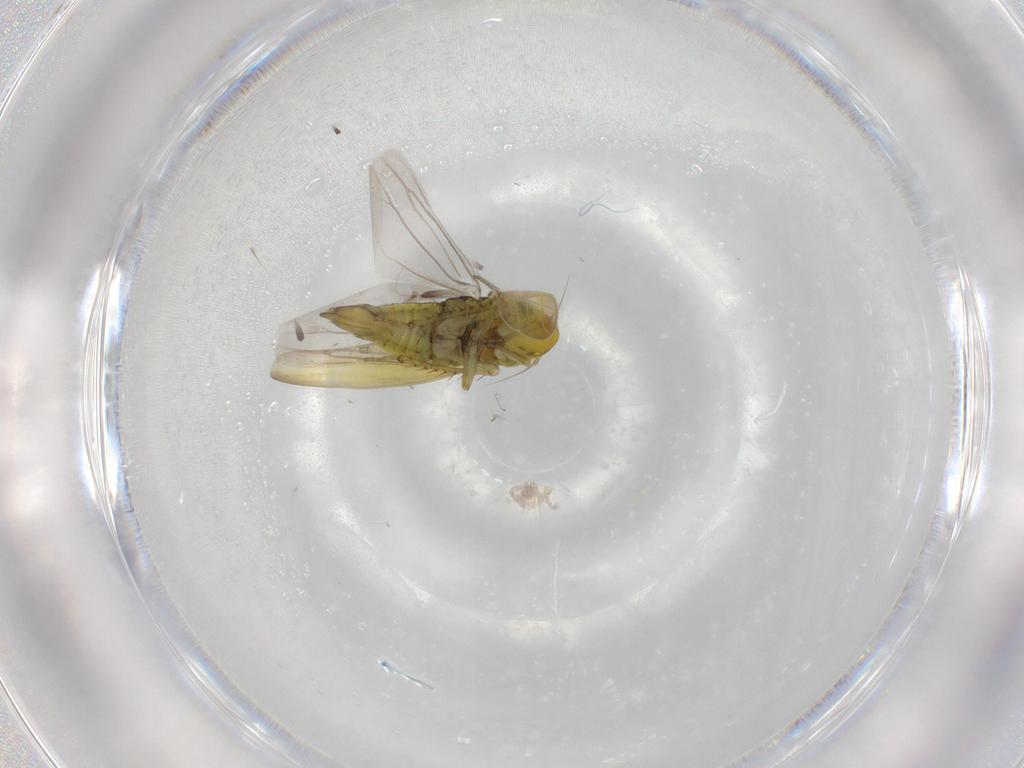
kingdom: Animalia
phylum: Arthropoda
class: Insecta
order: Hemiptera
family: Cicadellidae
